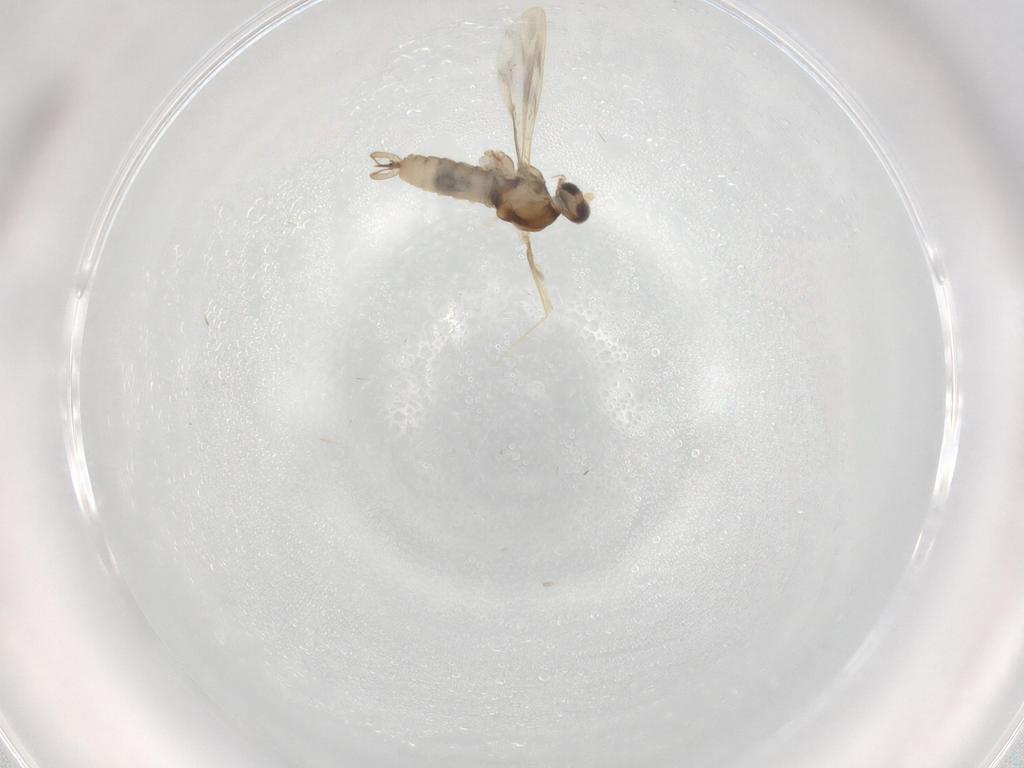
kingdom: Animalia
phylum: Arthropoda
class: Insecta
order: Diptera
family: Cecidomyiidae
